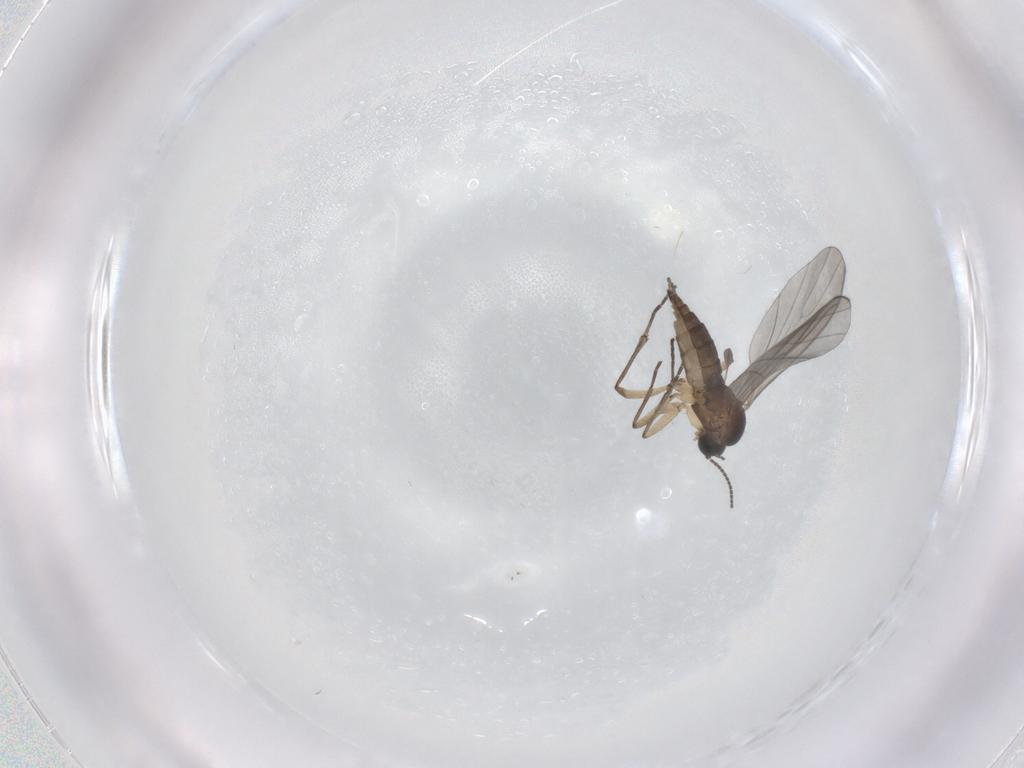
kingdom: Animalia
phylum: Arthropoda
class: Insecta
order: Diptera
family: Sciaridae
